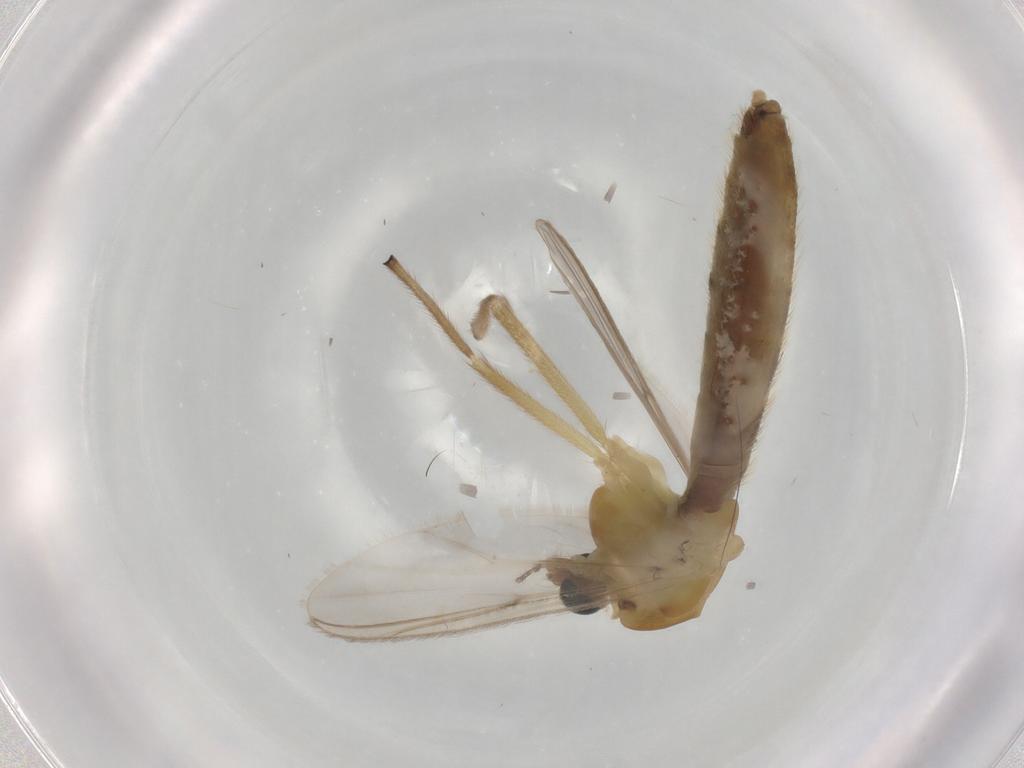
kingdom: Animalia
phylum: Arthropoda
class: Insecta
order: Diptera
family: Chironomidae
